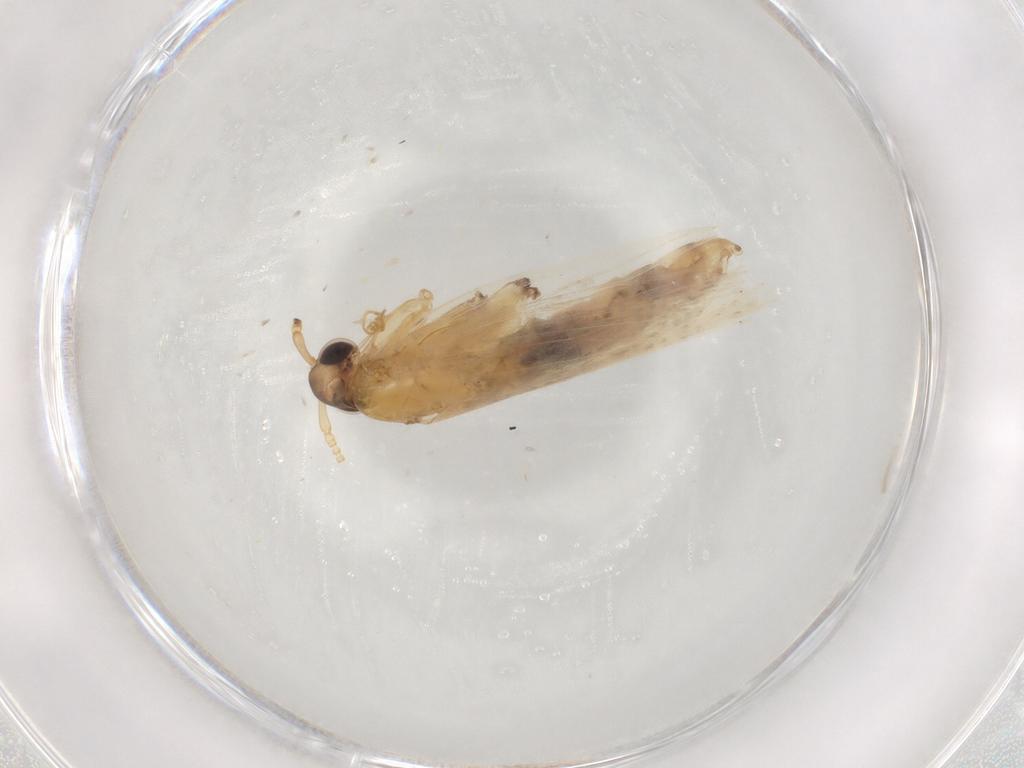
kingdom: Animalia
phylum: Arthropoda
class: Insecta
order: Lepidoptera
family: Lecithoceridae
